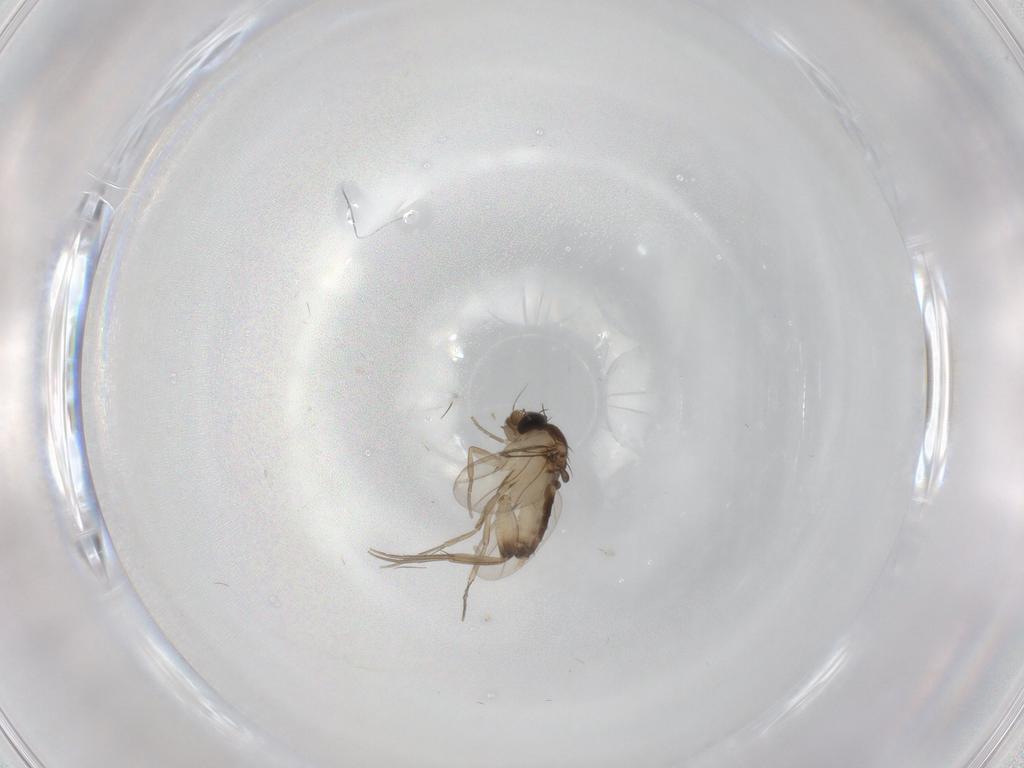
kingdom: Animalia
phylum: Arthropoda
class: Insecta
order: Diptera
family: Phoridae
